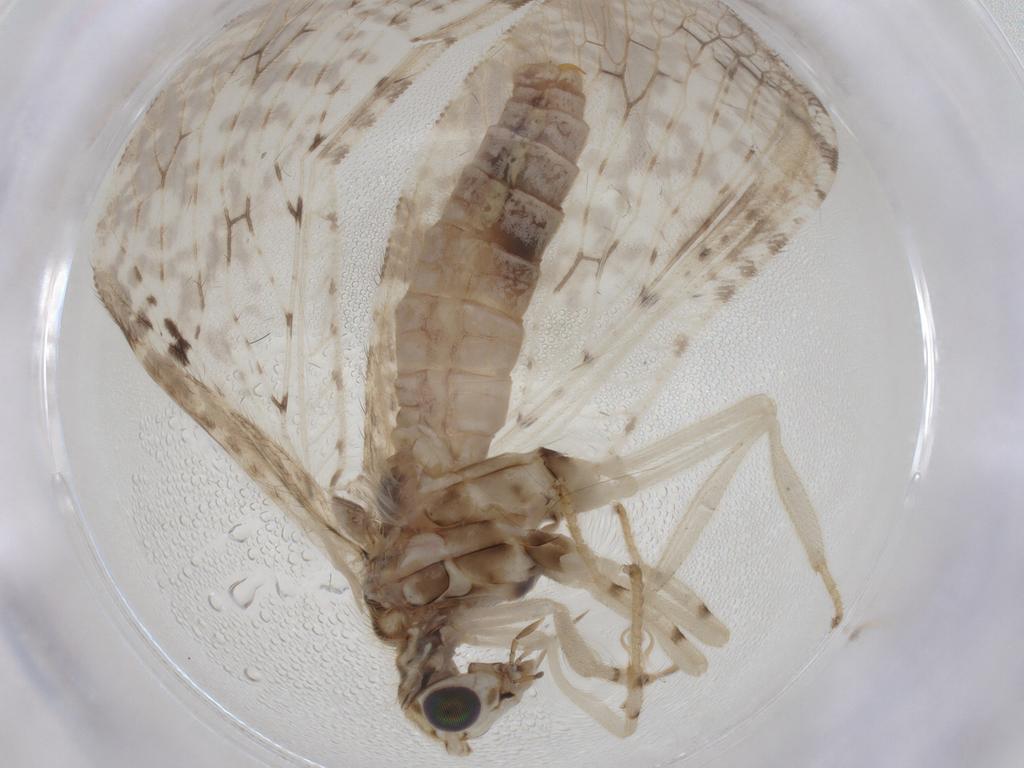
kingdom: Animalia
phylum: Arthropoda
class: Insecta
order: Neuroptera
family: Hemerobiidae
